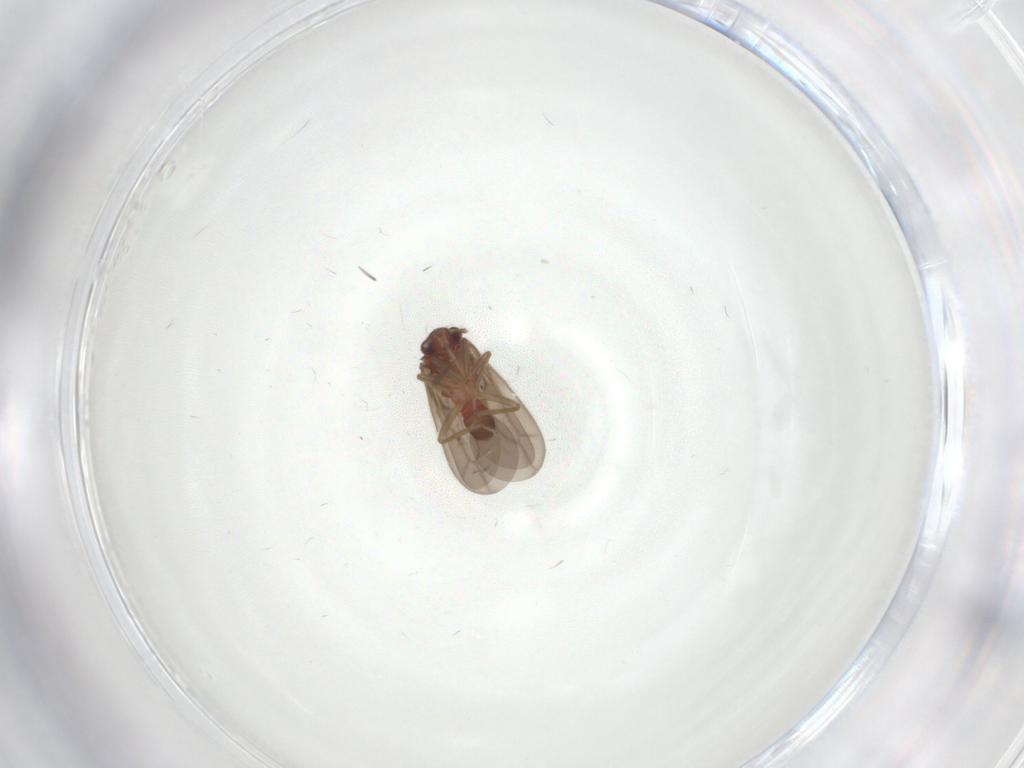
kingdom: Animalia
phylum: Arthropoda
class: Insecta
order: Hemiptera
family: Ceratocombidae
